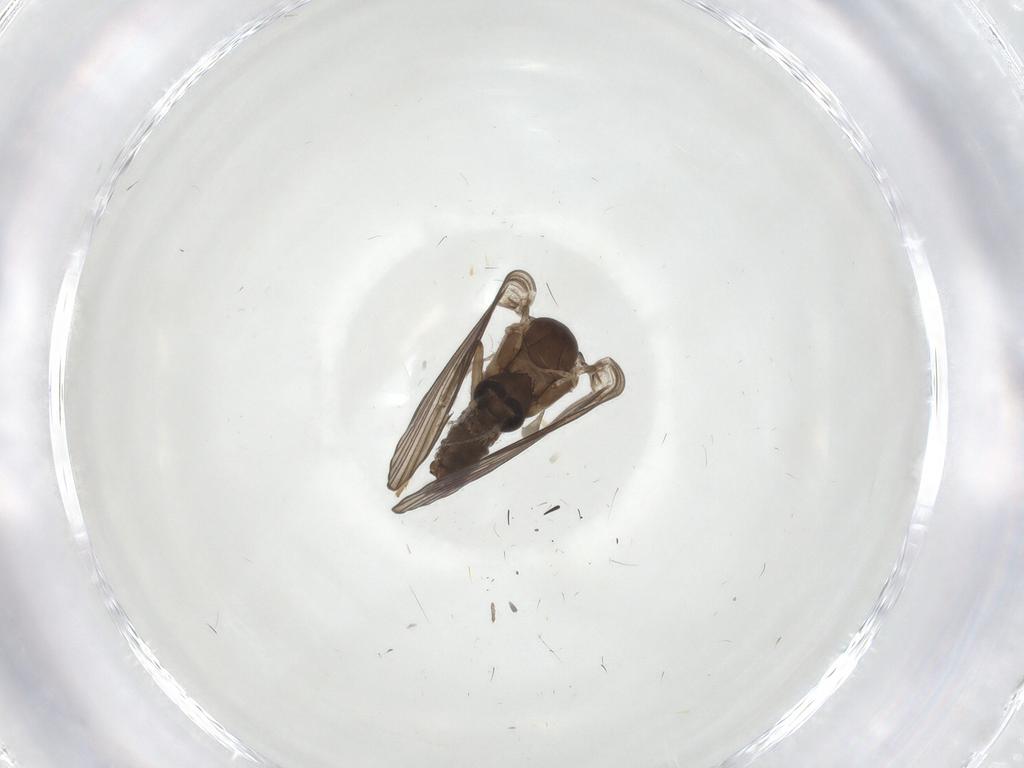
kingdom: Animalia
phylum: Arthropoda
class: Insecta
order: Diptera
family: Psychodidae
